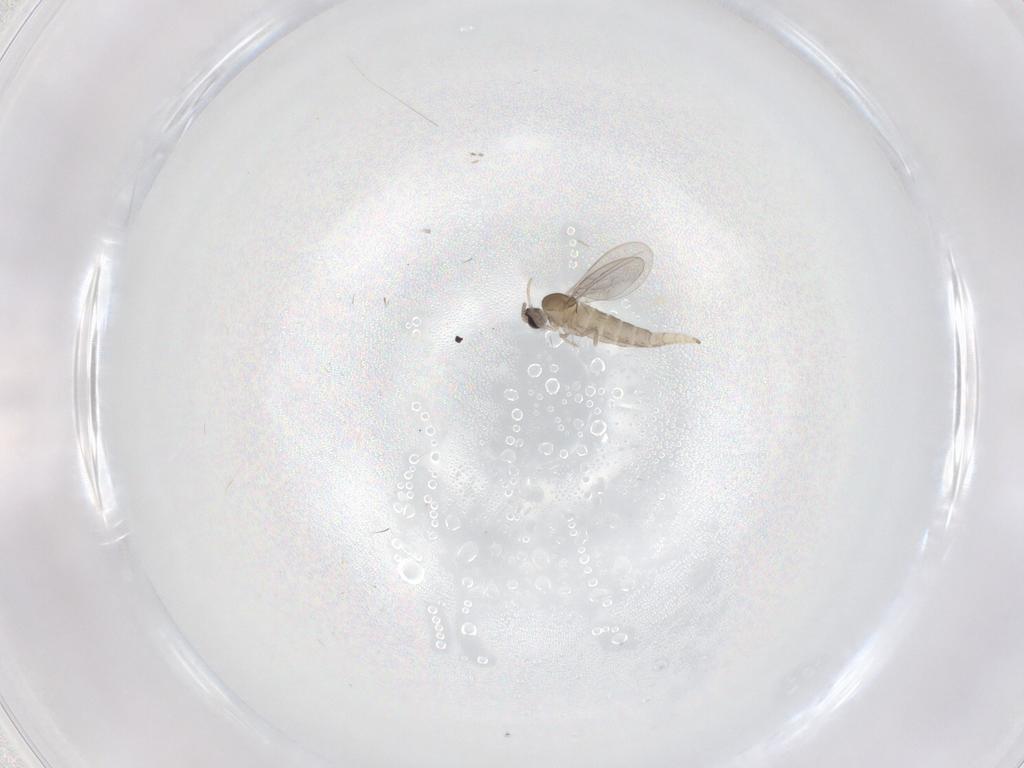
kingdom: Animalia
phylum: Arthropoda
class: Insecta
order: Diptera
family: Cecidomyiidae
